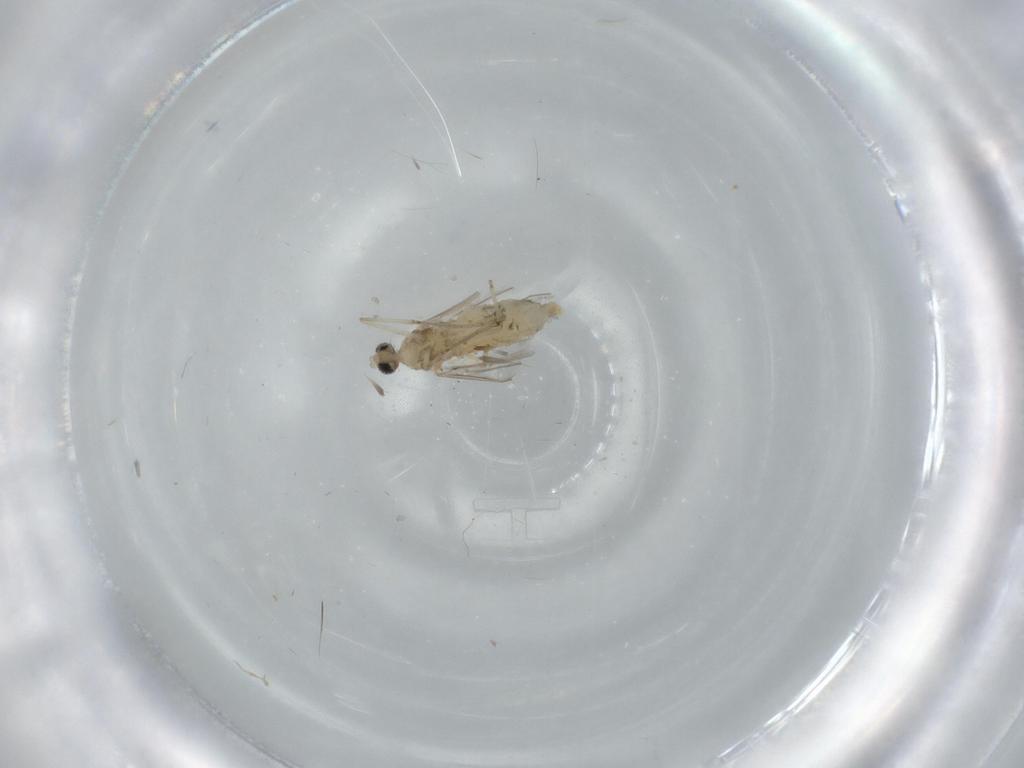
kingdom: Animalia
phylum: Arthropoda
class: Insecta
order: Diptera
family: Cecidomyiidae
